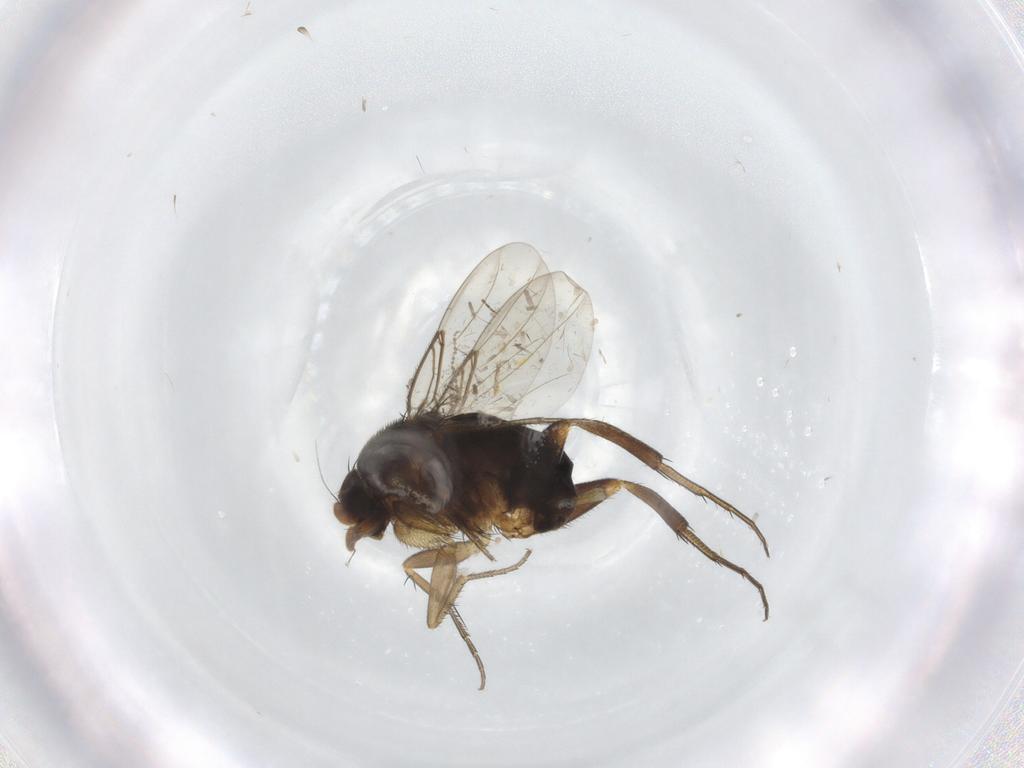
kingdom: Animalia
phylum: Arthropoda
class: Insecta
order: Diptera
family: Phoridae
